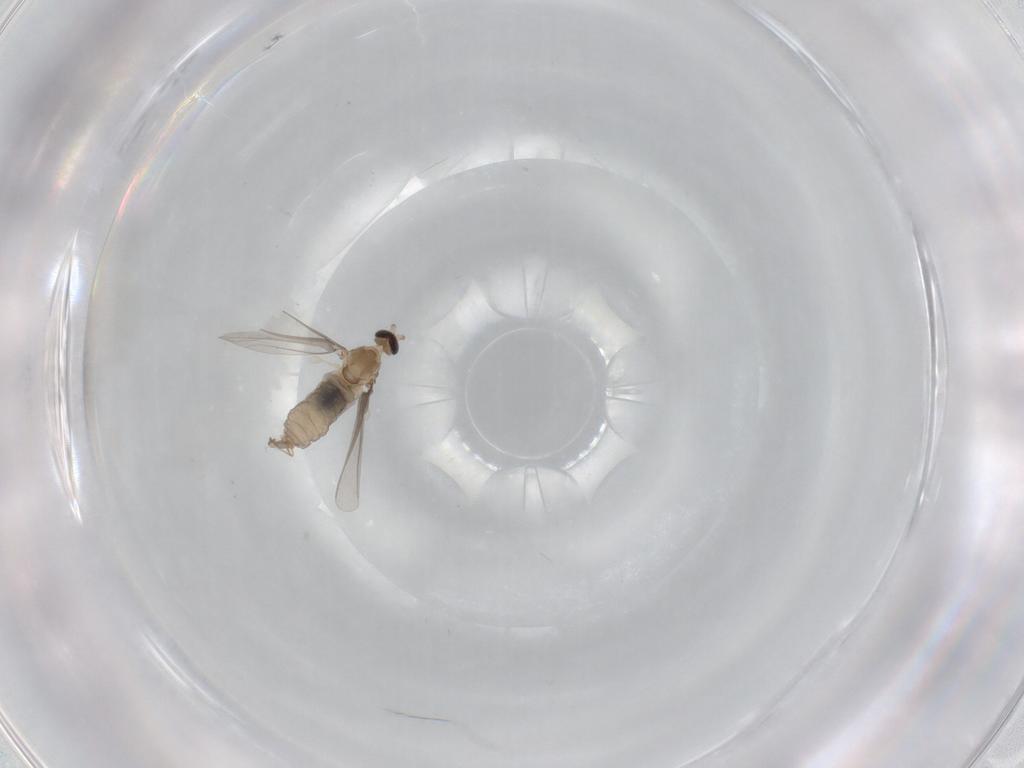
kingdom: Animalia
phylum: Arthropoda
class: Insecta
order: Diptera
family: Cecidomyiidae
